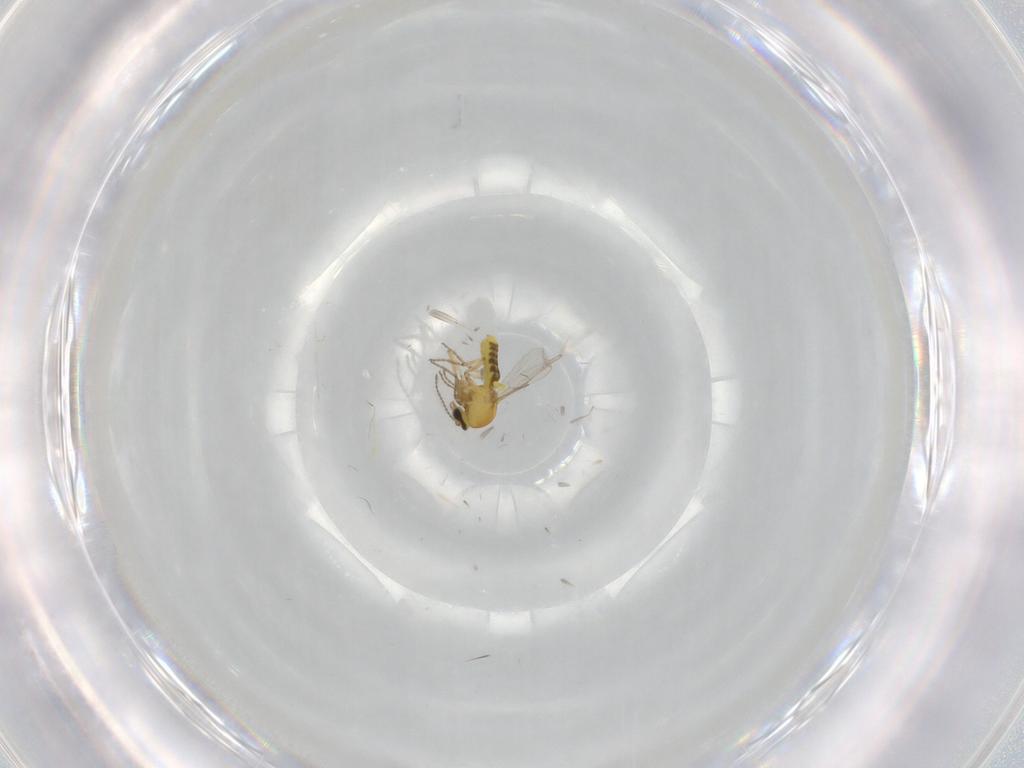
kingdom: Animalia
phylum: Arthropoda
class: Insecta
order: Diptera
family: Ceratopogonidae
